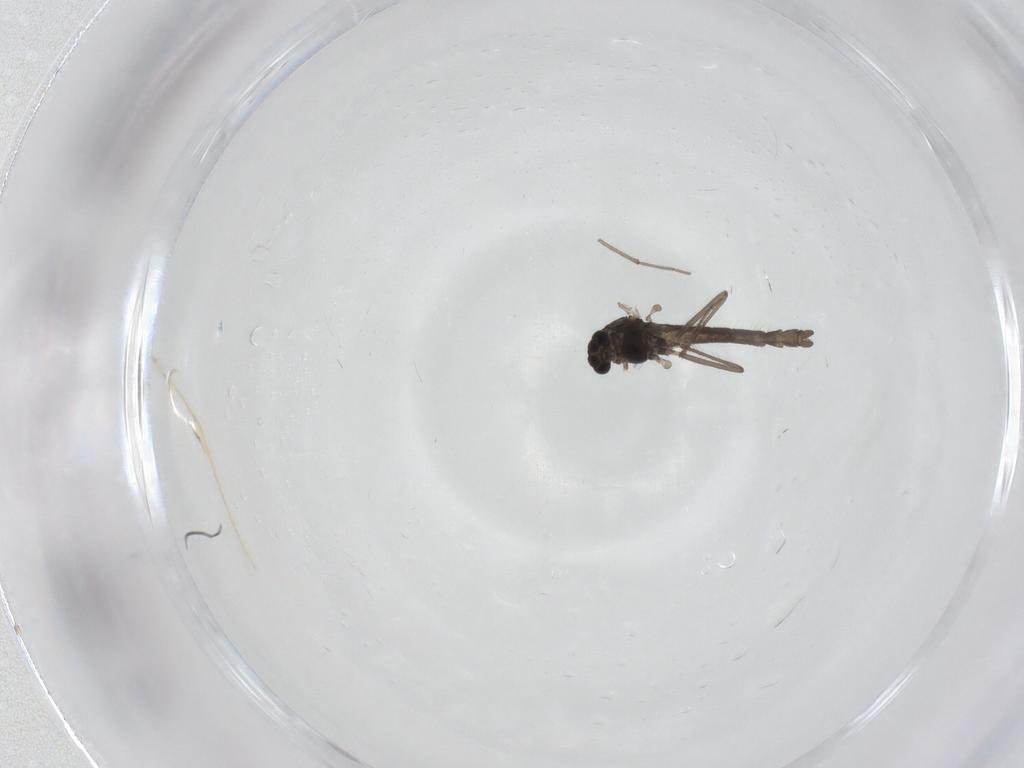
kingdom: Animalia
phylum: Arthropoda
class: Insecta
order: Diptera
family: Chironomidae
